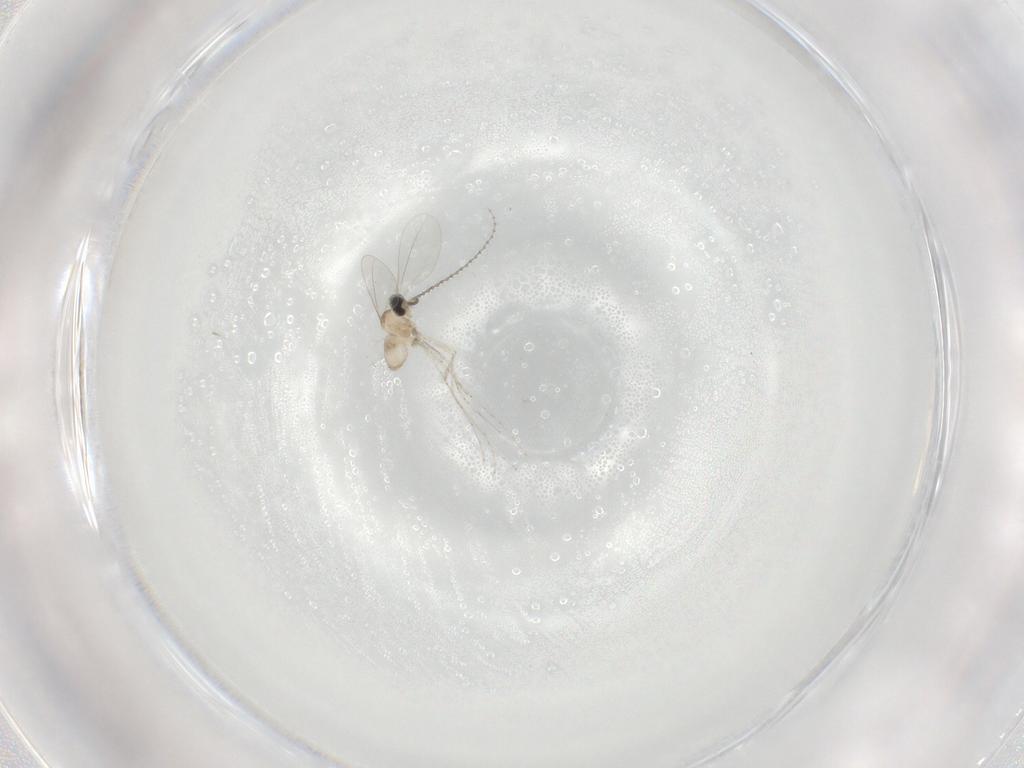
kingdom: Animalia
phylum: Arthropoda
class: Insecta
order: Diptera
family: Cecidomyiidae
